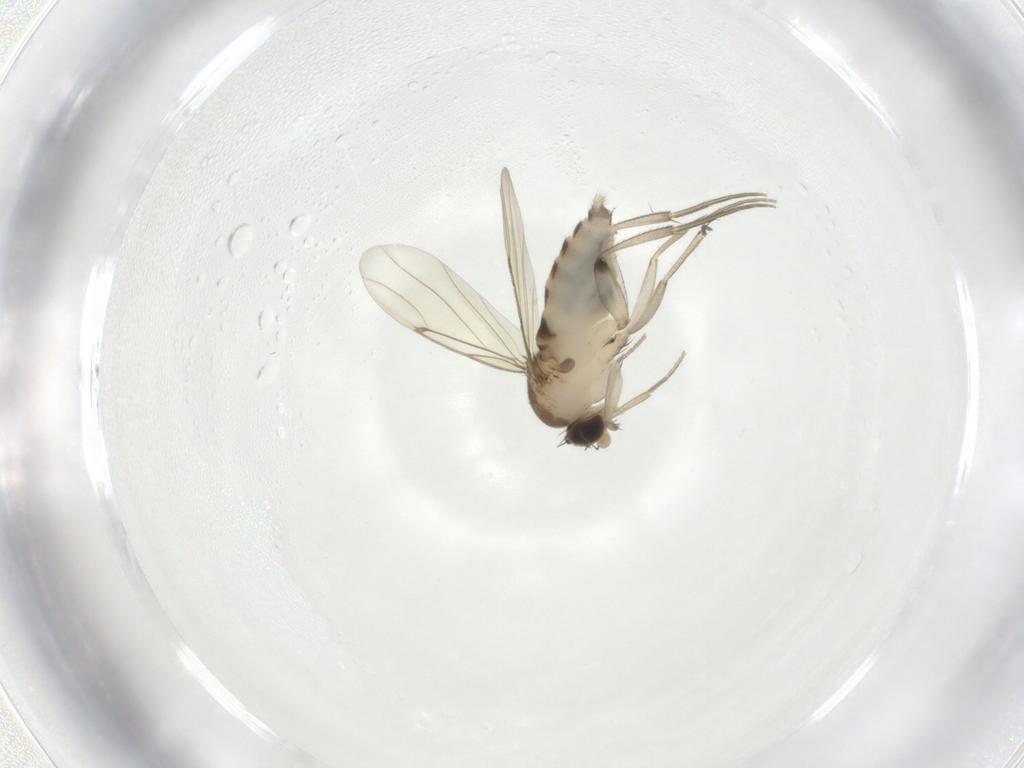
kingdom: Animalia
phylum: Arthropoda
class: Insecta
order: Diptera
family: Phoridae
